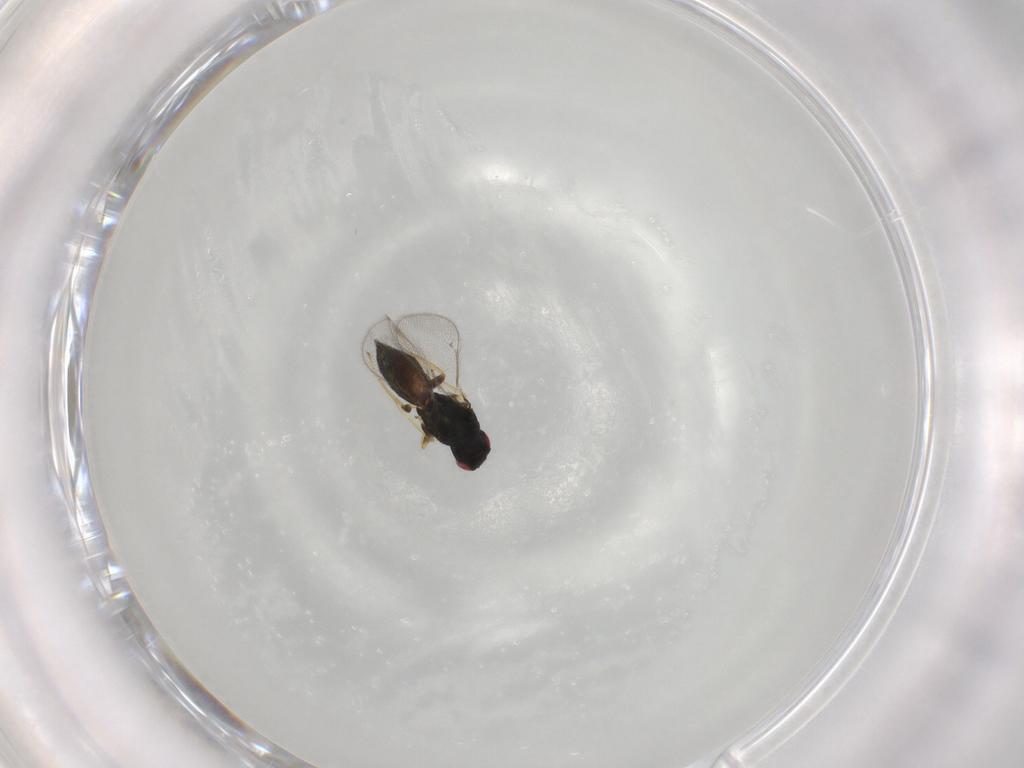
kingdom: Animalia
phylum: Arthropoda
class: Insecta
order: Hymenoptera
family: Eulophidae
